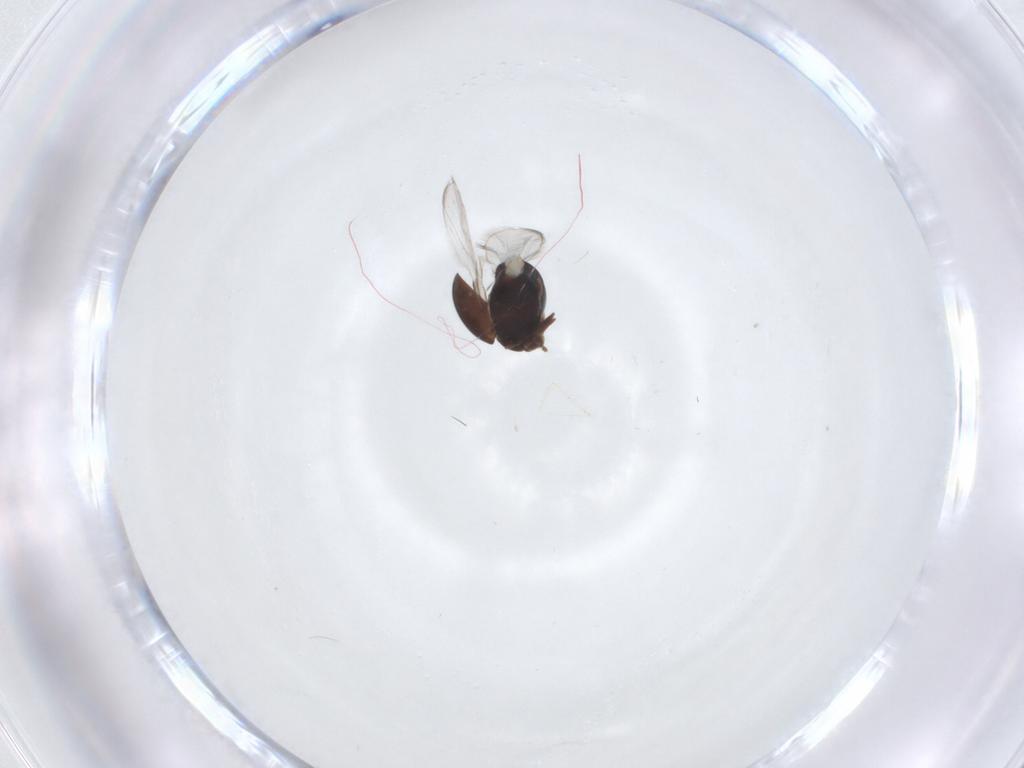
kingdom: Animalia
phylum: Arthropoda
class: Insecta
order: Coleoptera
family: Corylophidae
